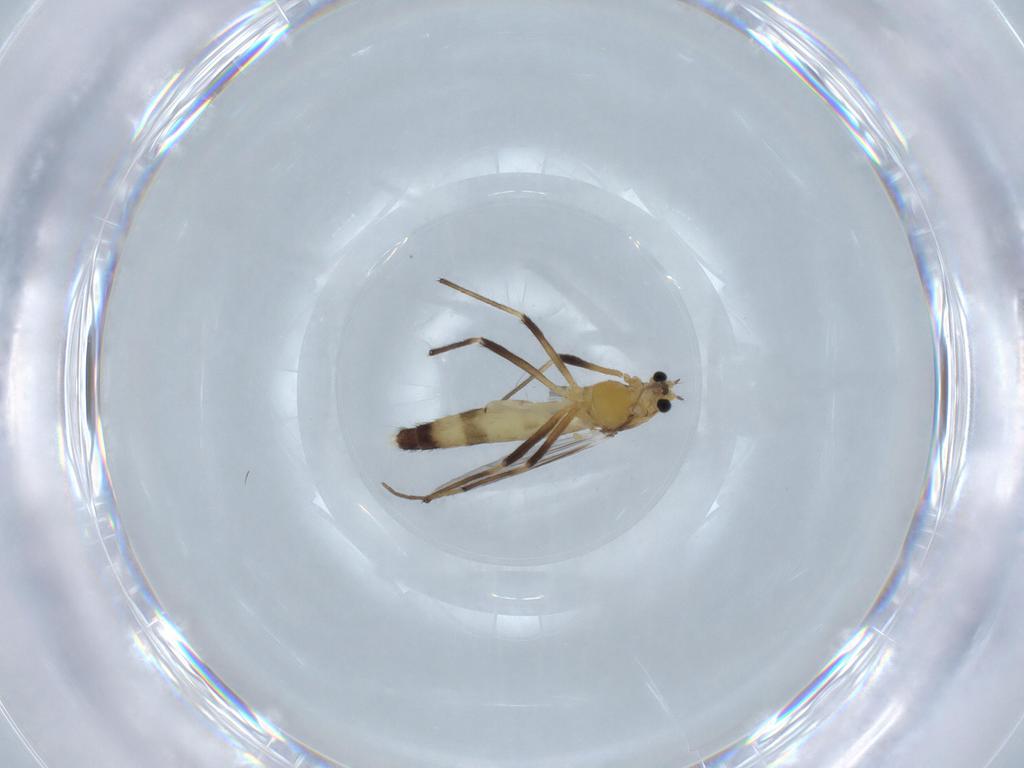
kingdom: Animalia
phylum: Arthropoda
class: Insecta
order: Diptera
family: Chironomidae
